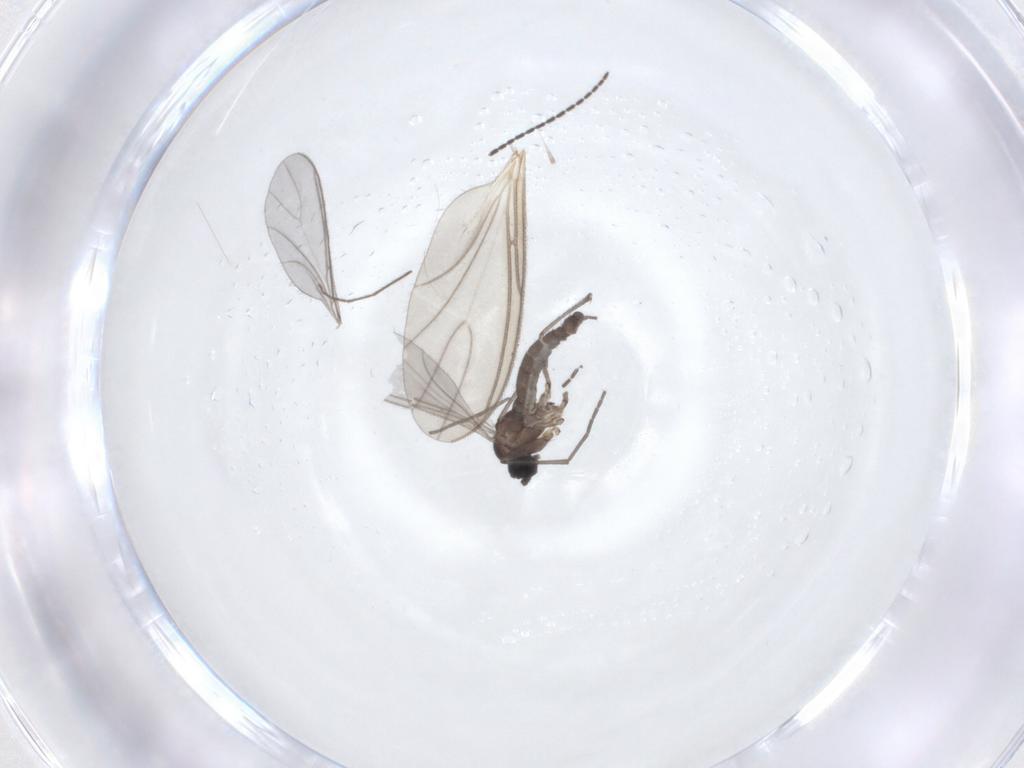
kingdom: Animalia
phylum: Arthropoda
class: Insecta
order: Diptera
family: Sciaridae
